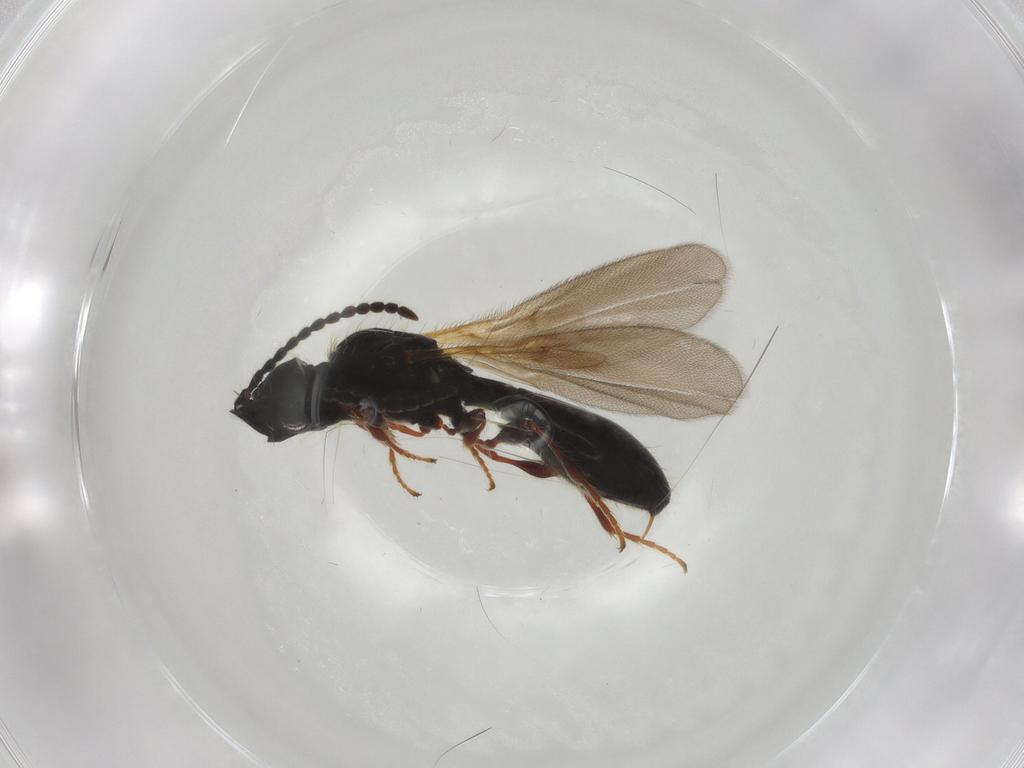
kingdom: Animalia
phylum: Arthropoda
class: Insecta
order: Hymenoptera
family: Diapriidae
